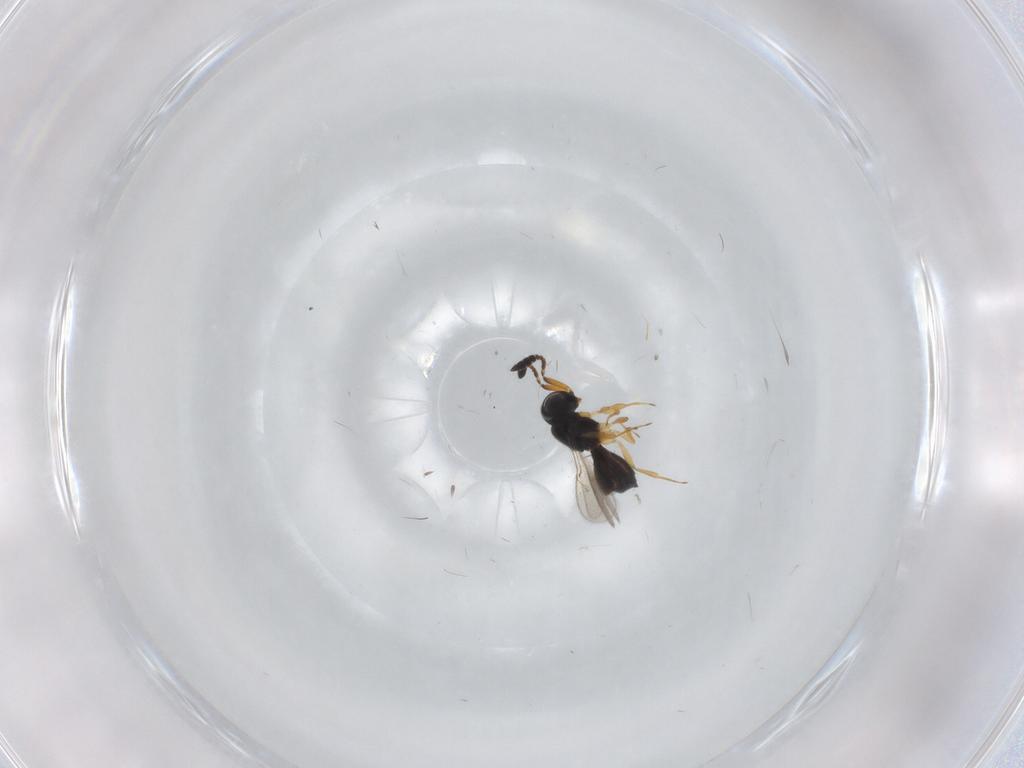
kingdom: Animalia
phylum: Arthropoda
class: Insecta
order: Hymenoptera
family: Scelionidae
